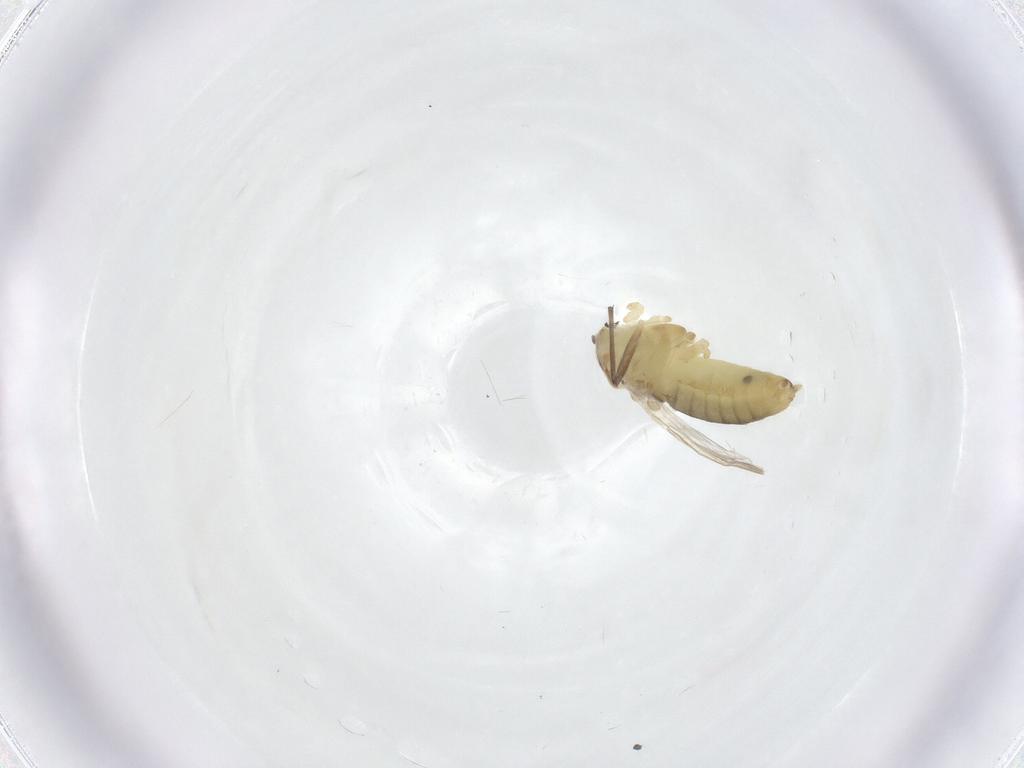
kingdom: Animalia
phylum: Arthropoda
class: Insecta
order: Diptera
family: Chironomidae
